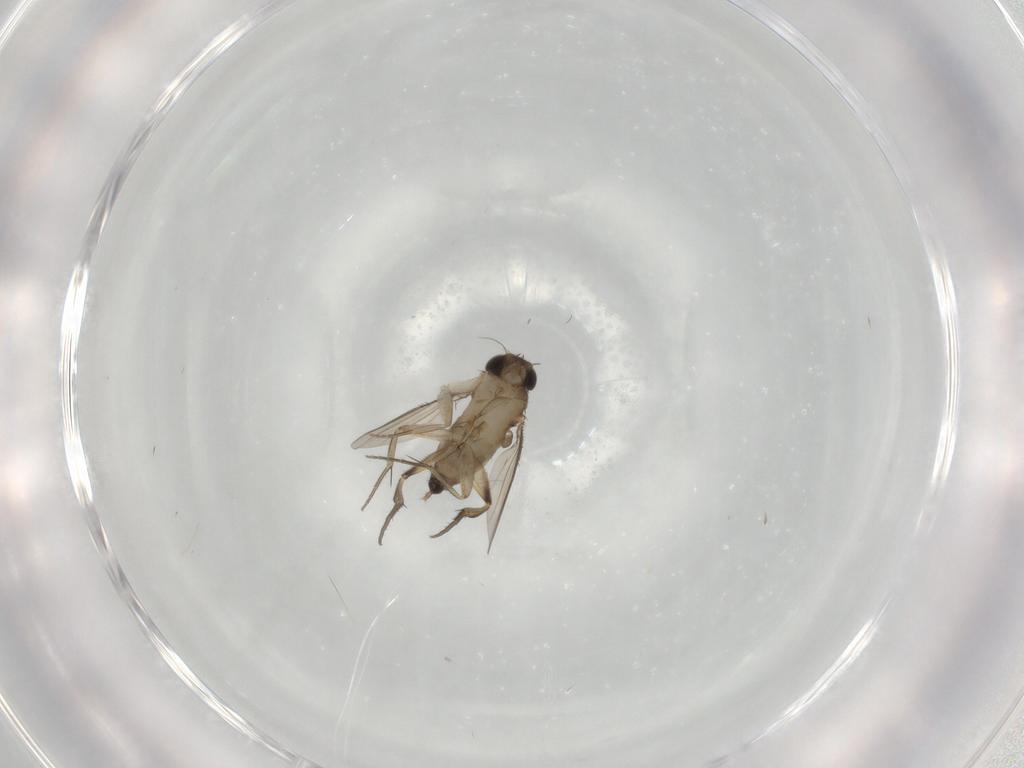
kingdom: Animalia
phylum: Arthropoda
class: Insecta
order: Diptera
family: Phoridae
